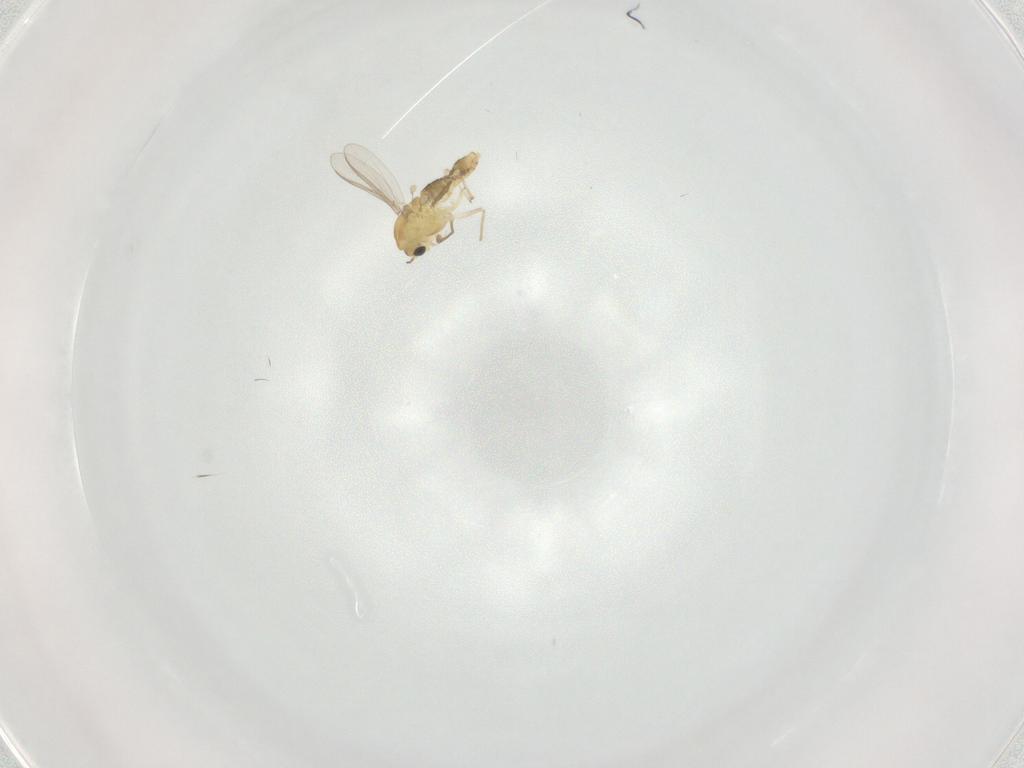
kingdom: Animalia
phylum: Arthropoda
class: Insecta
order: Diptera
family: Chironomidae
